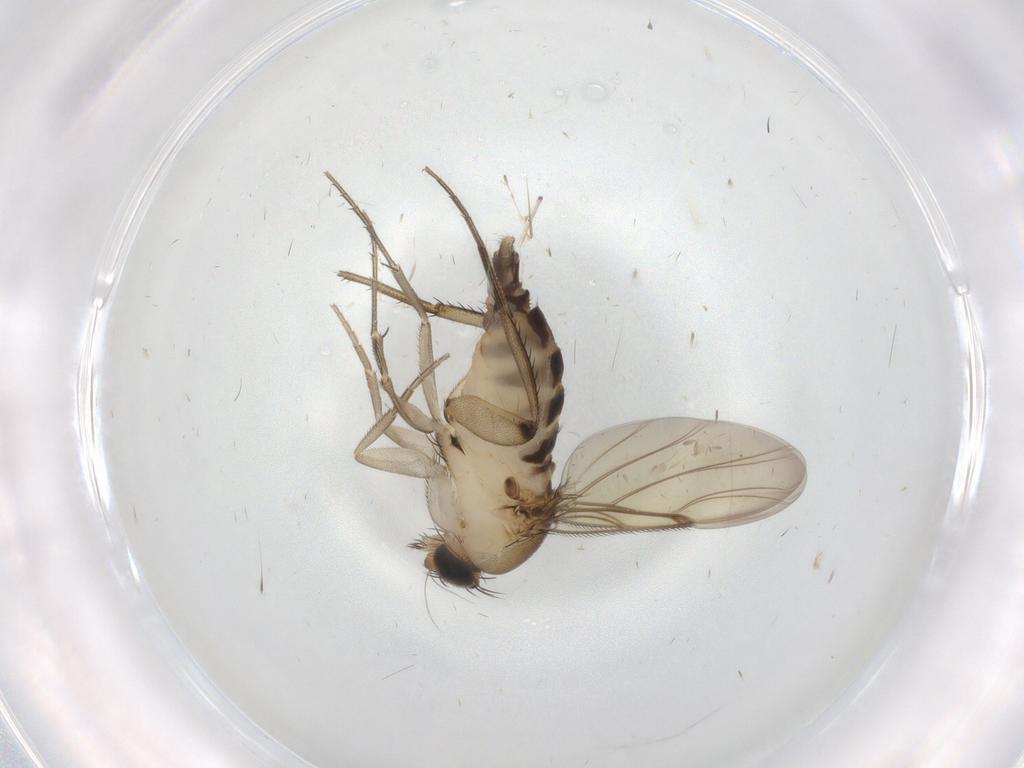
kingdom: Animalia
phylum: Arthropoda
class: Insecta
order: Diptera
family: Phoridae
